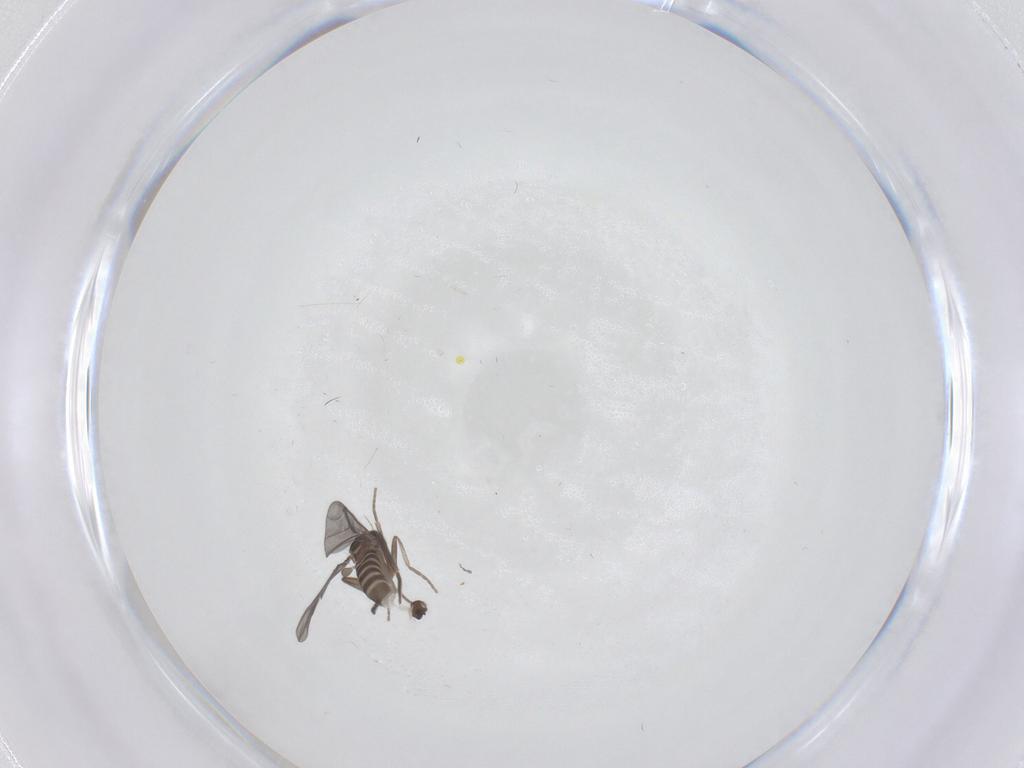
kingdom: Animalia
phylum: Arthropoda
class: Insecta
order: Diptera
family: Phoridae
